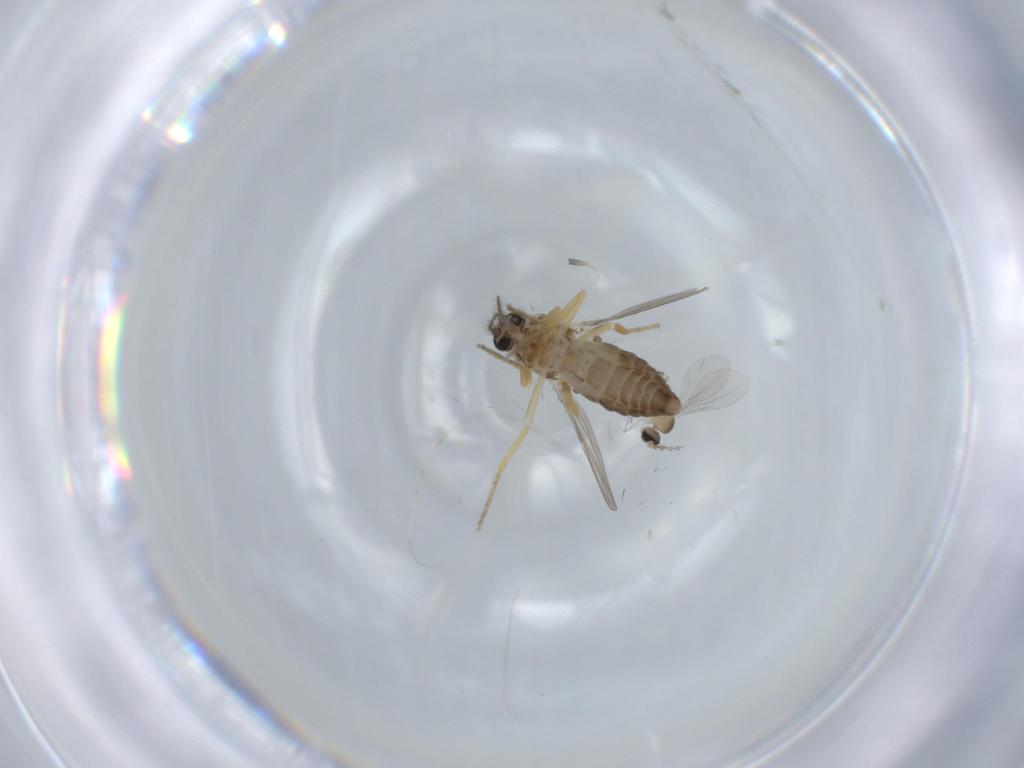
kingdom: Animalia
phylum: Arthropoda
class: Insecta
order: Diptera
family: Ceratopogonidae
